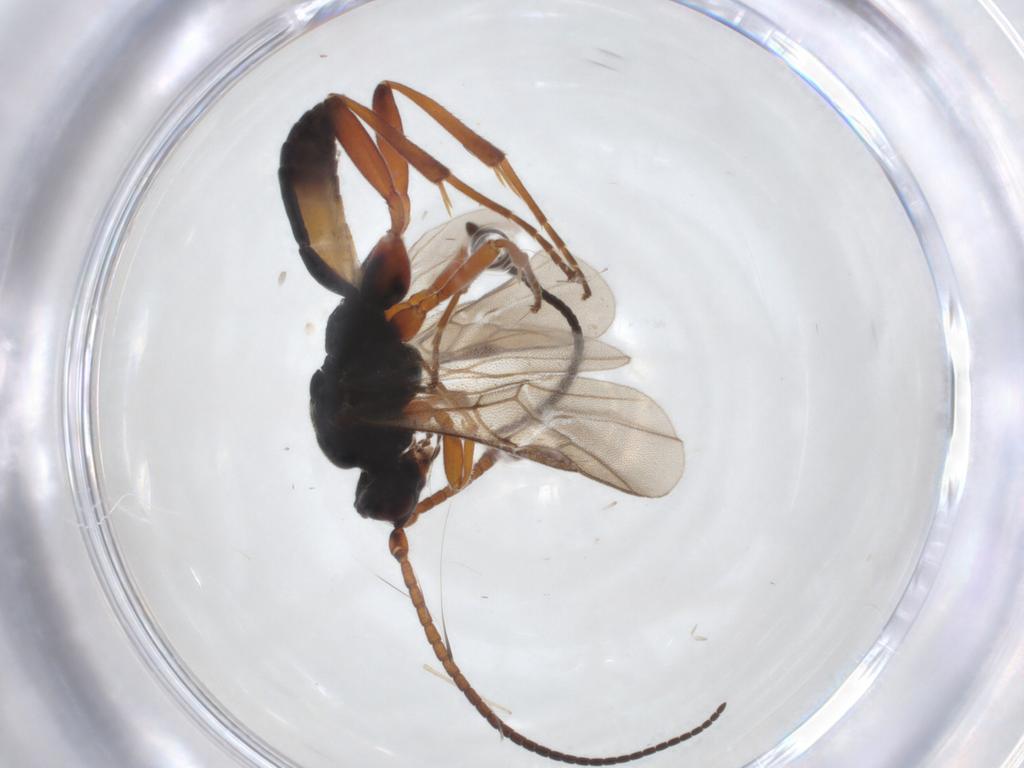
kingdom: Animalia
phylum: Arthropoda
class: Insecta
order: Hymenoptera
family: Braconidae
